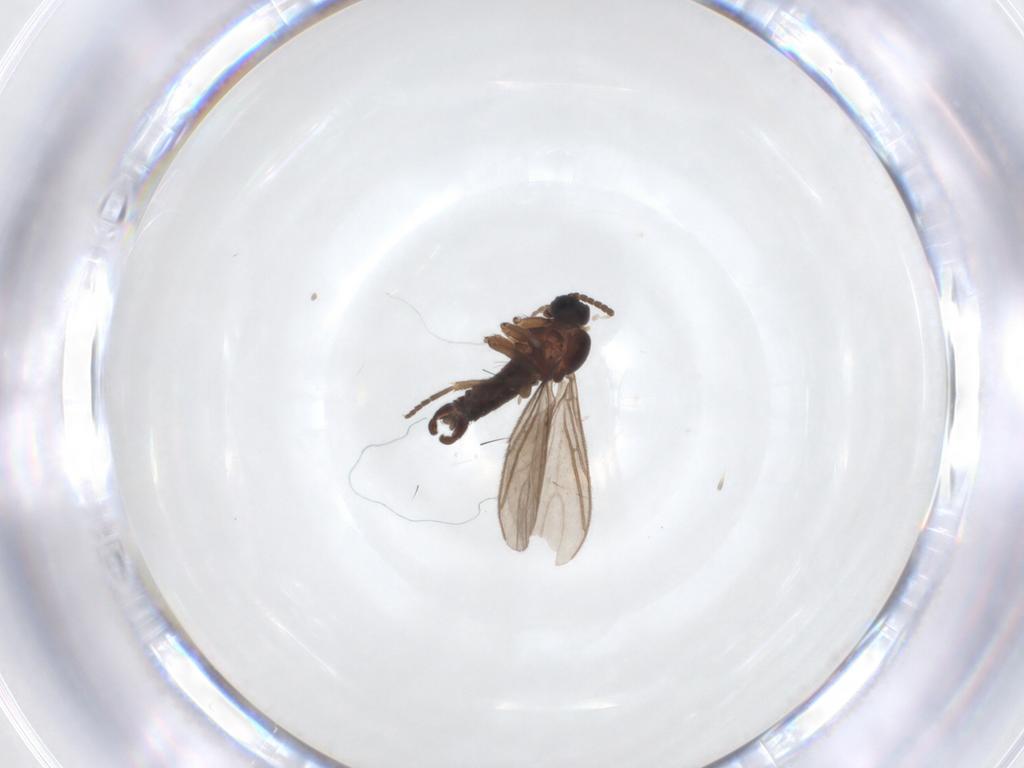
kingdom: Animalia
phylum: Arthropoda
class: Insecta
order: Diptera
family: Sciaridae
